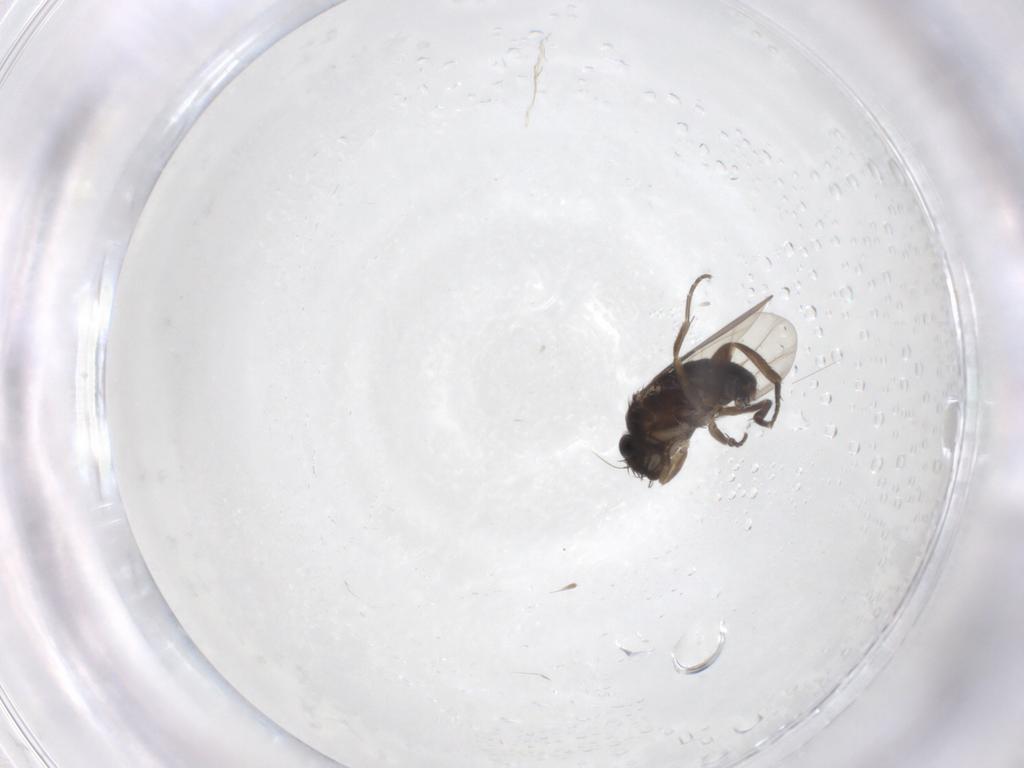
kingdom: Animalia
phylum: Arthropoda
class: Insecta
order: Diptera
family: Phoridae
